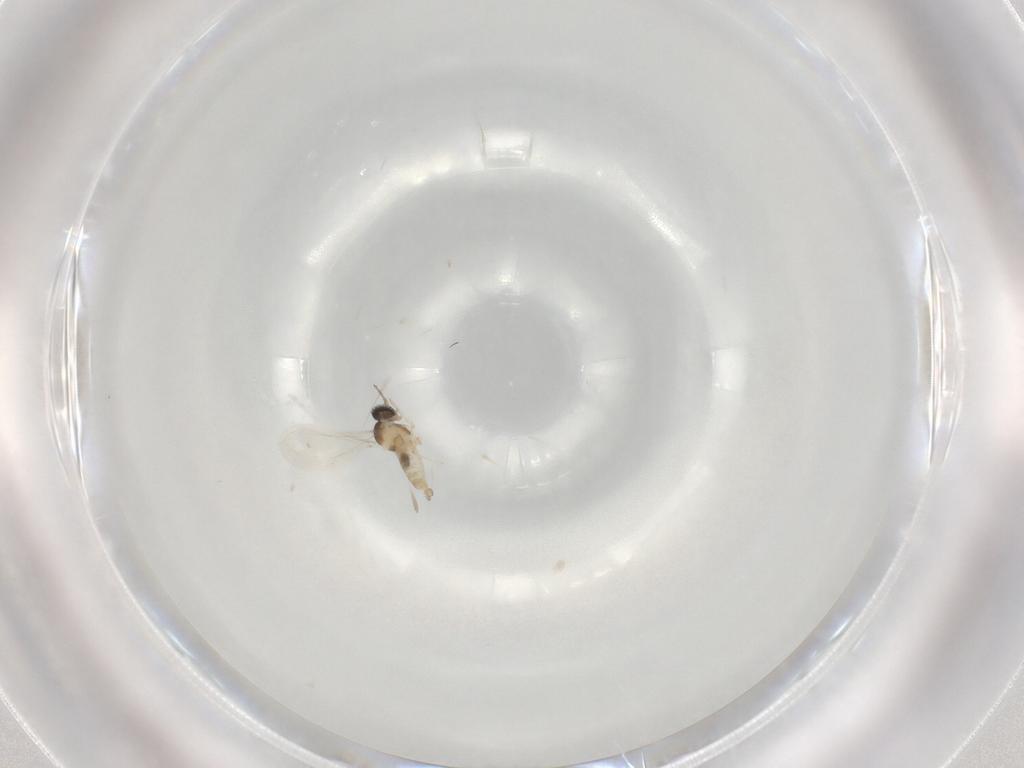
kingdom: Animalia
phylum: Arthropoda
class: Insecta
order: Diptera
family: Cecidomyiidae
